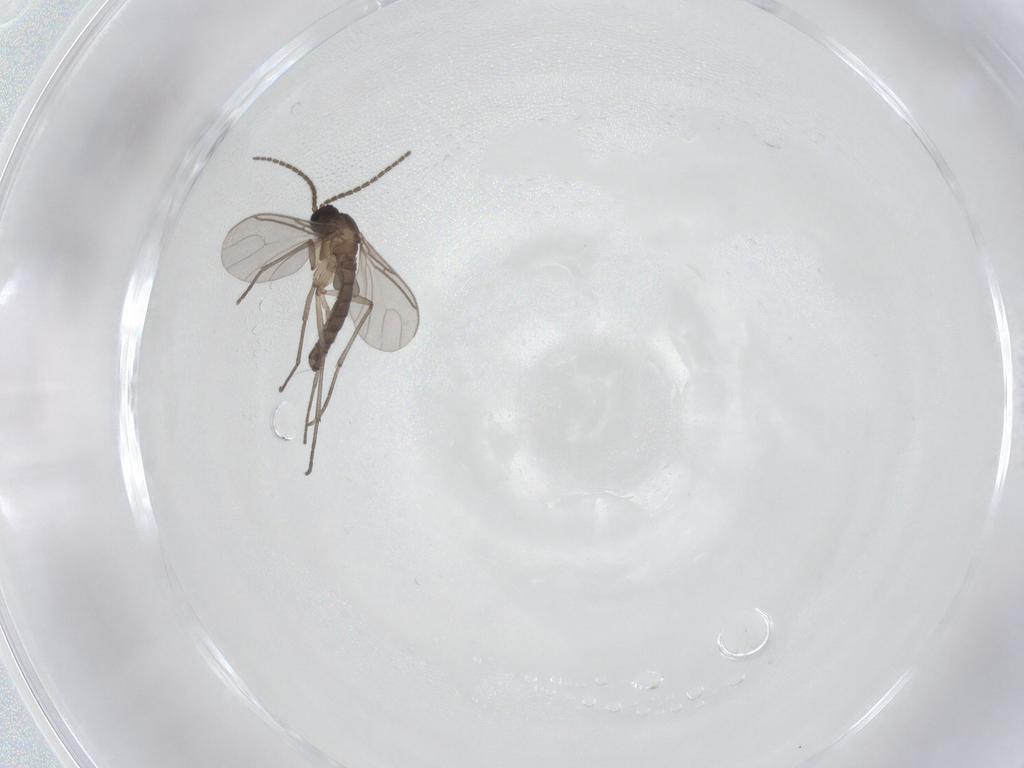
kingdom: Animalia
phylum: Arthropoda
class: Insecta
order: Diptera
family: Sciaridae
